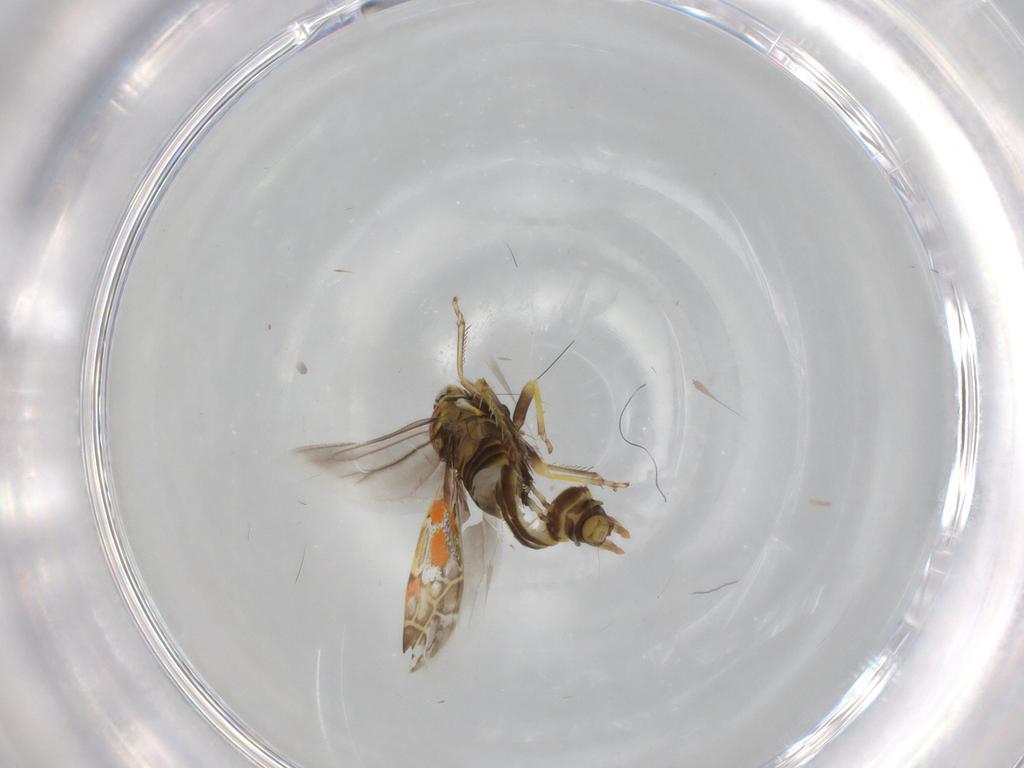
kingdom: Animalia
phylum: Arthropoda
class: Insecta
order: Hemiptera
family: Cicadellidae
